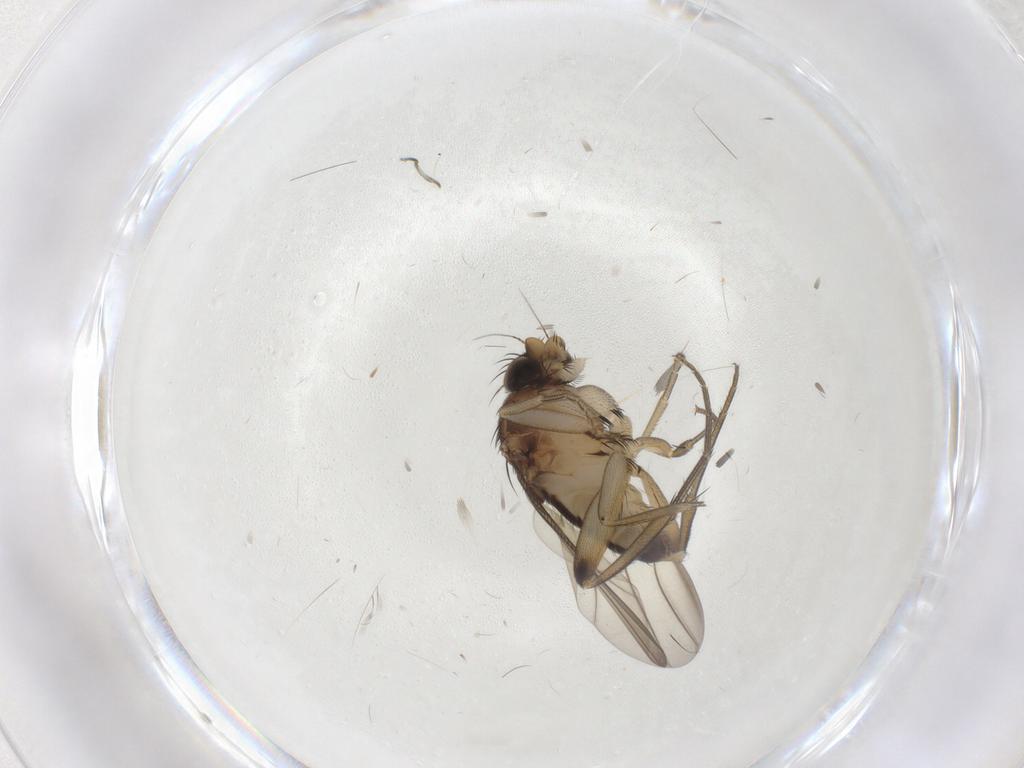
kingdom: Animalia
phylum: Arthropoda
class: Insecta
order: Diptera
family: Phoridae
